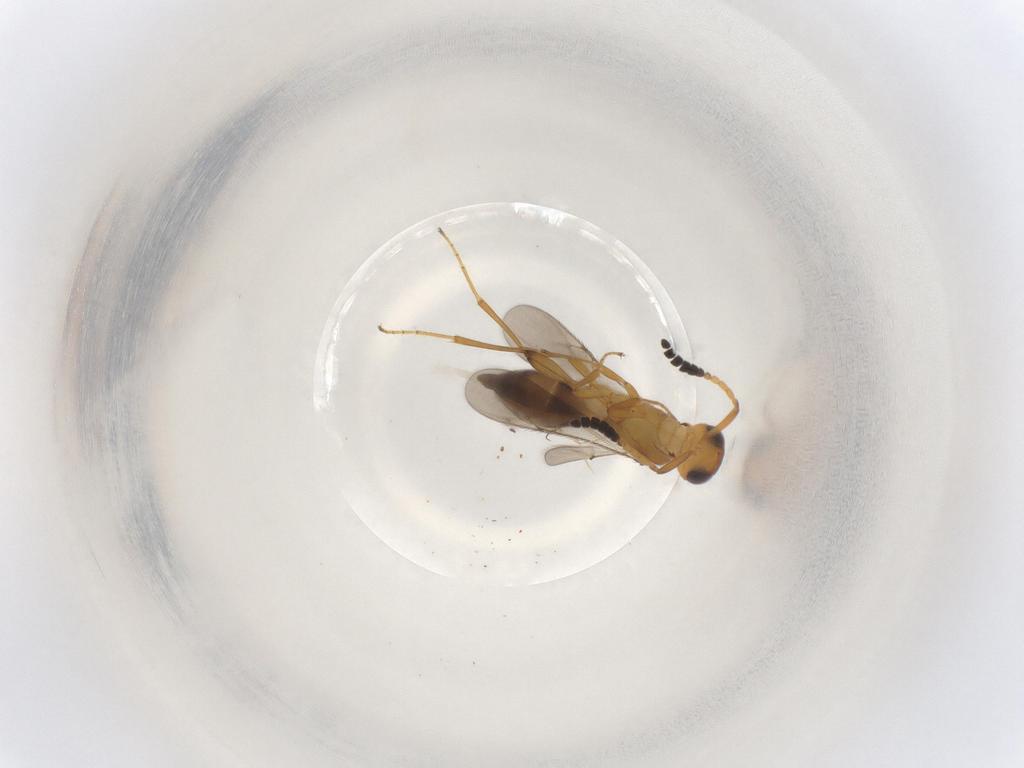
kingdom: Animalia
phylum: Arthropoda
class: Insecta
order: Hymenoptera
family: Scelionidae
